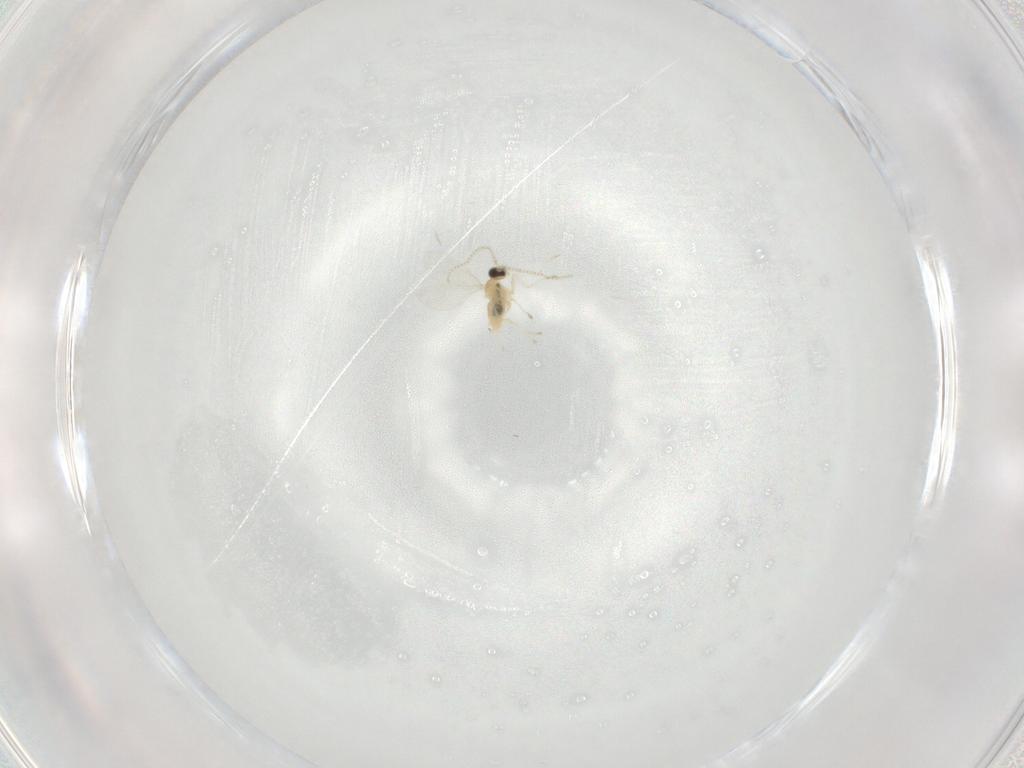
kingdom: Animalia
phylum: Arthropoda
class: Insecta
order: Diptera
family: Cecidomyiidae
